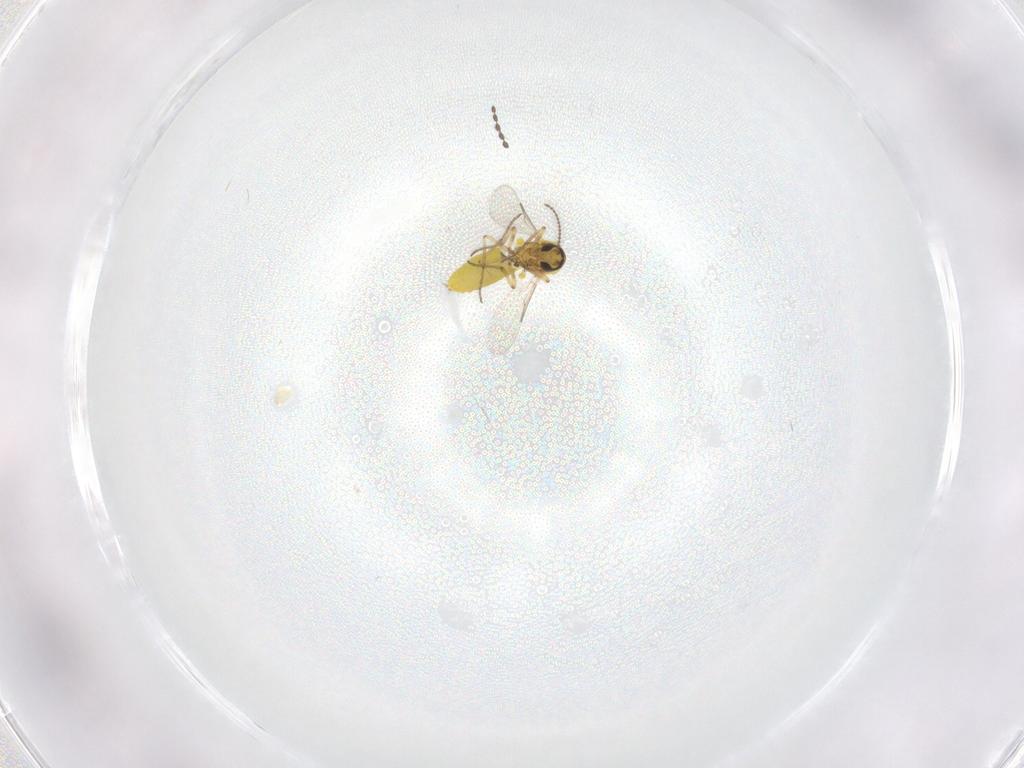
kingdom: Animalia
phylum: Arthropoda
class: Insecta
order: Diptera
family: Ceratopogonidae
